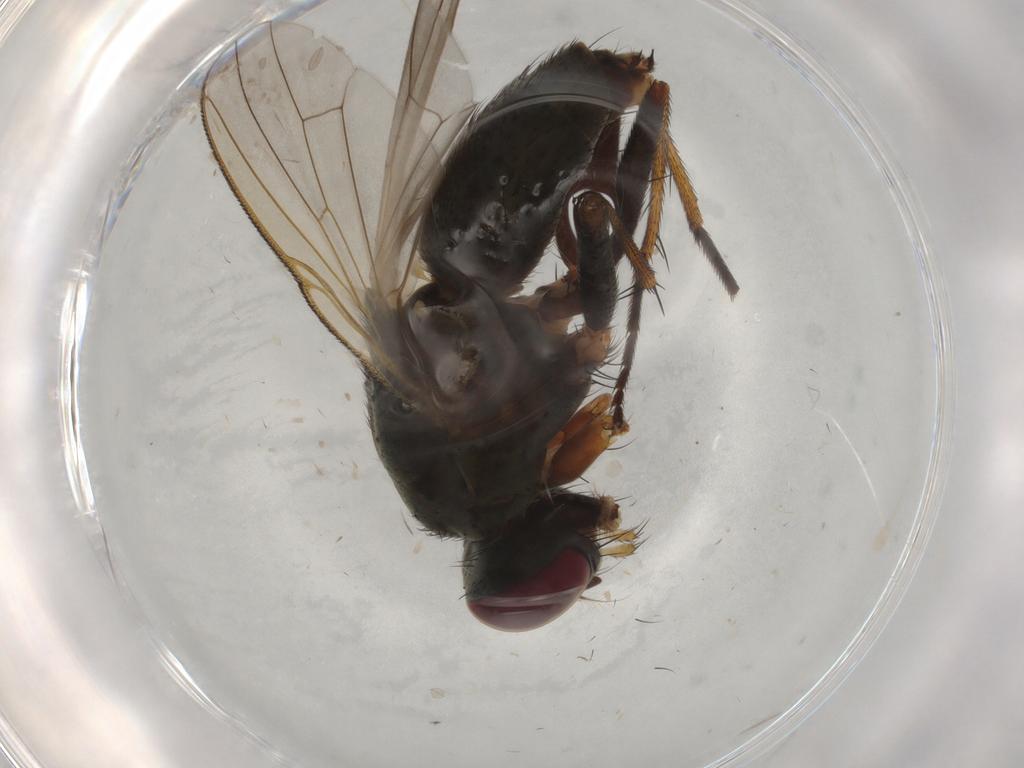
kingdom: Animalia
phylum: Arthropoda
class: Insecta
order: Diptera
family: Muscidae
